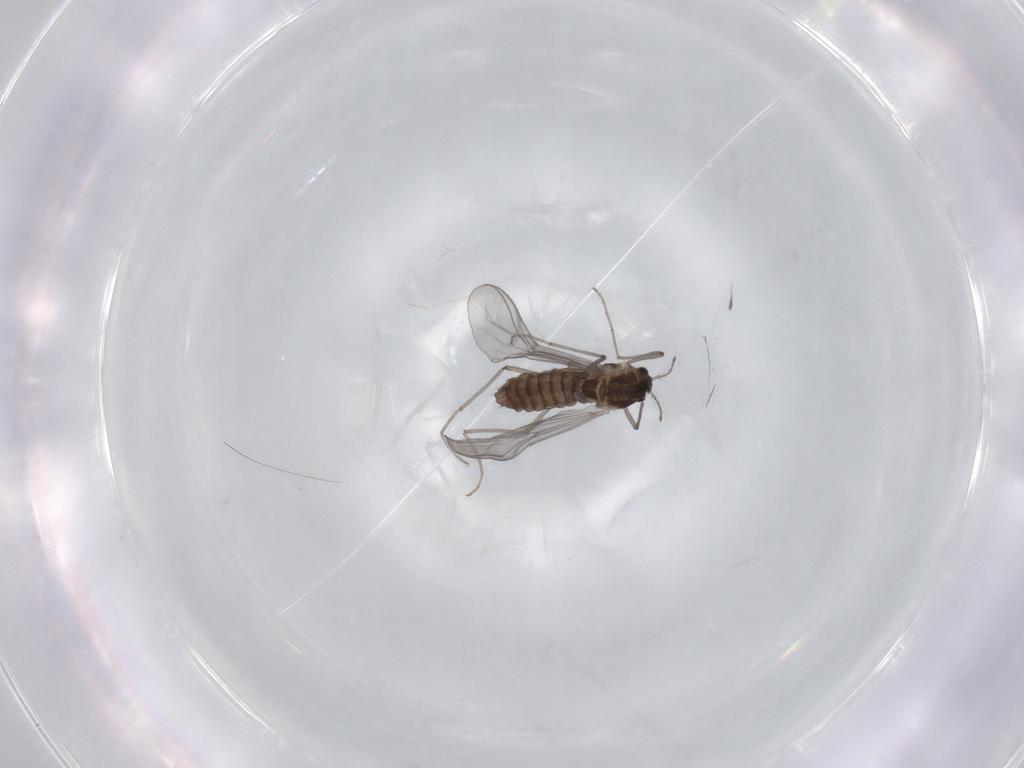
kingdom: Animalia
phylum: Arthropoda
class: Insecta
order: Diptera
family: Chironomidae
